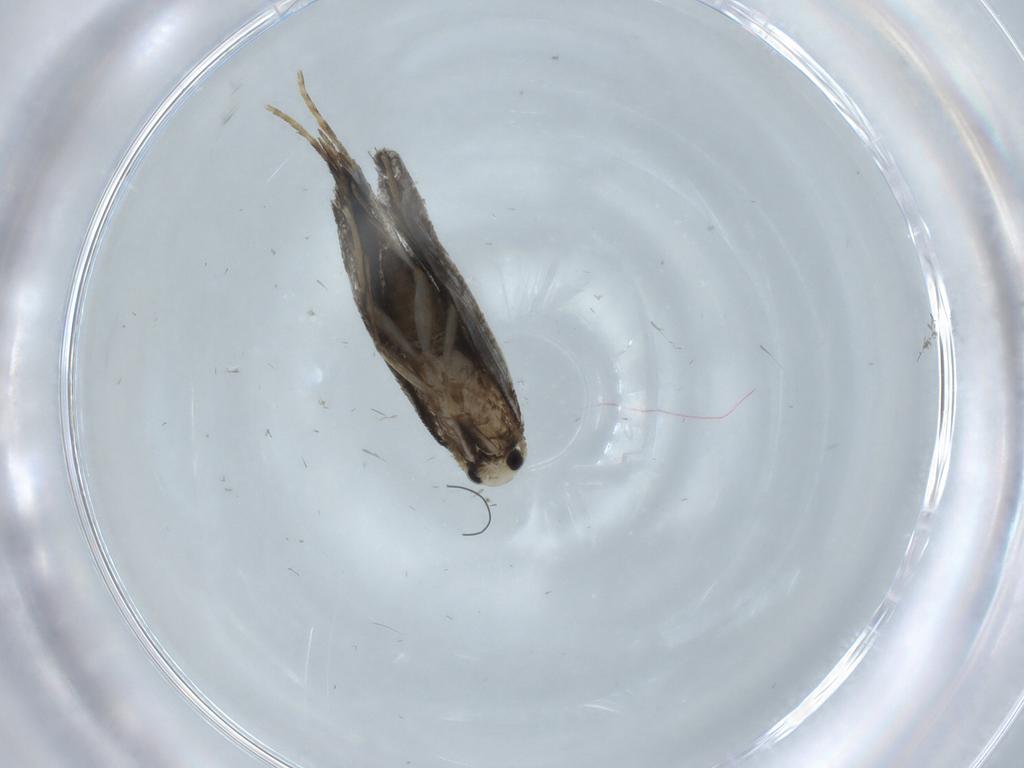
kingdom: Animalia
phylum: Arthropoda
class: Insecta
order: Lepidoptera
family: Psychidae
